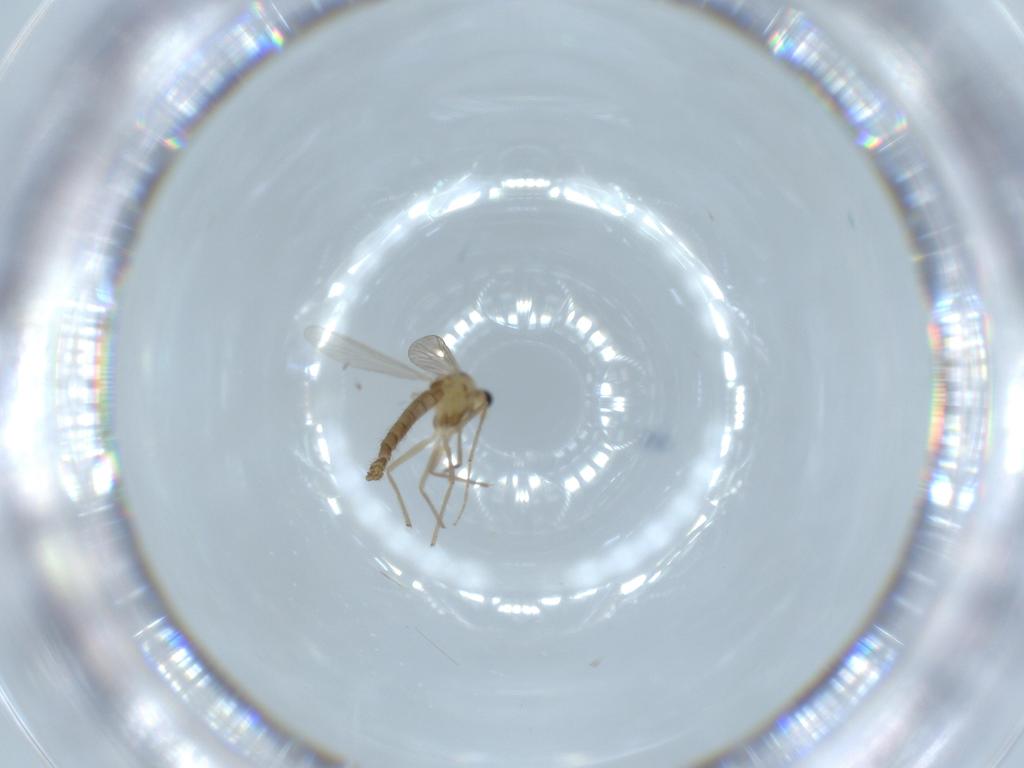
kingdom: Animalia
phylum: Arthropoda
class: Insecta
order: Diptera
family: Chironomidae
